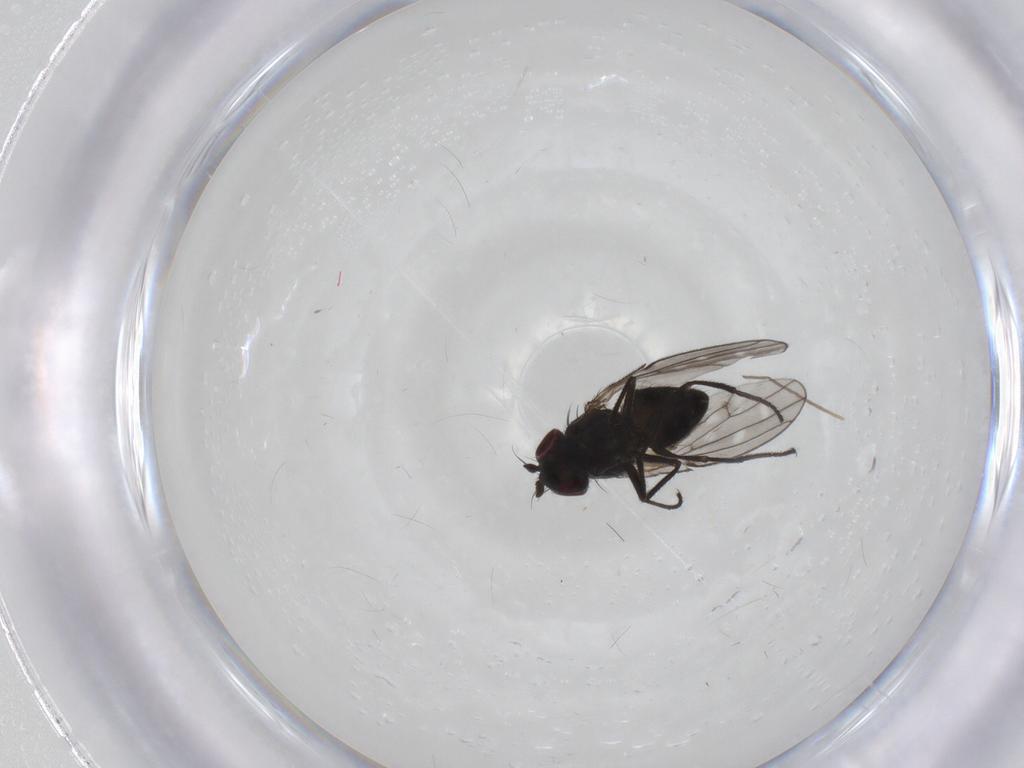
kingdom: Animalia
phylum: Arthropoda
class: Insecta
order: Diptera
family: Ephydridae
